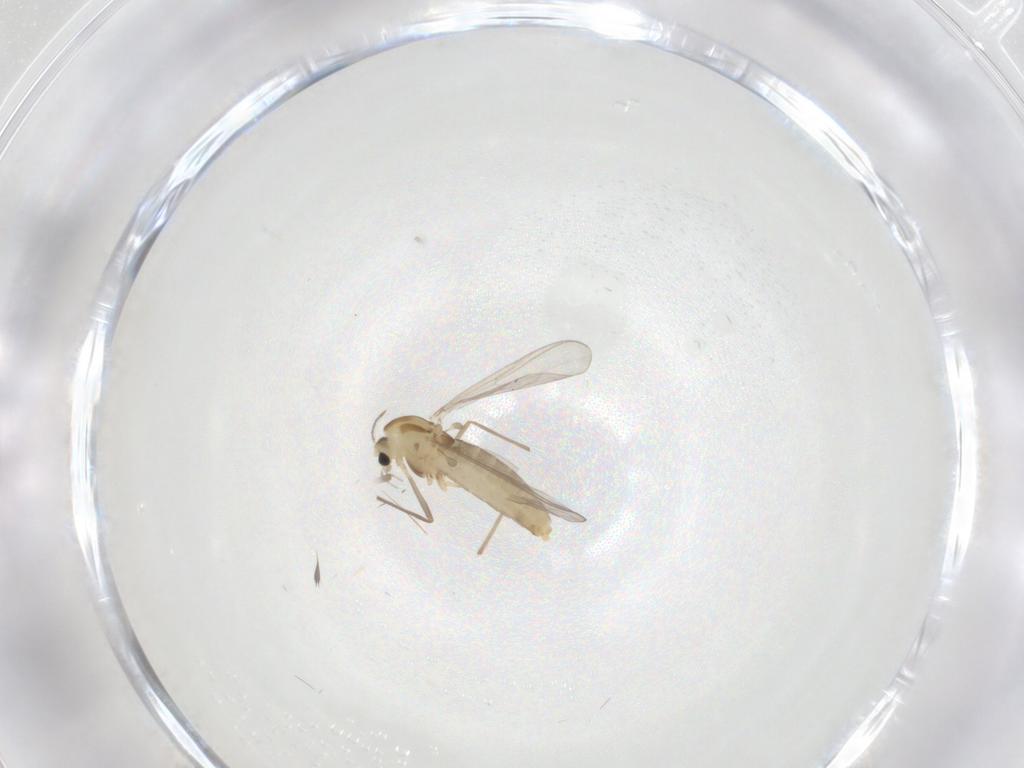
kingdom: Animalia
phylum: Arthropoda
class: Insecta
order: Diptera
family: Chironomidae
